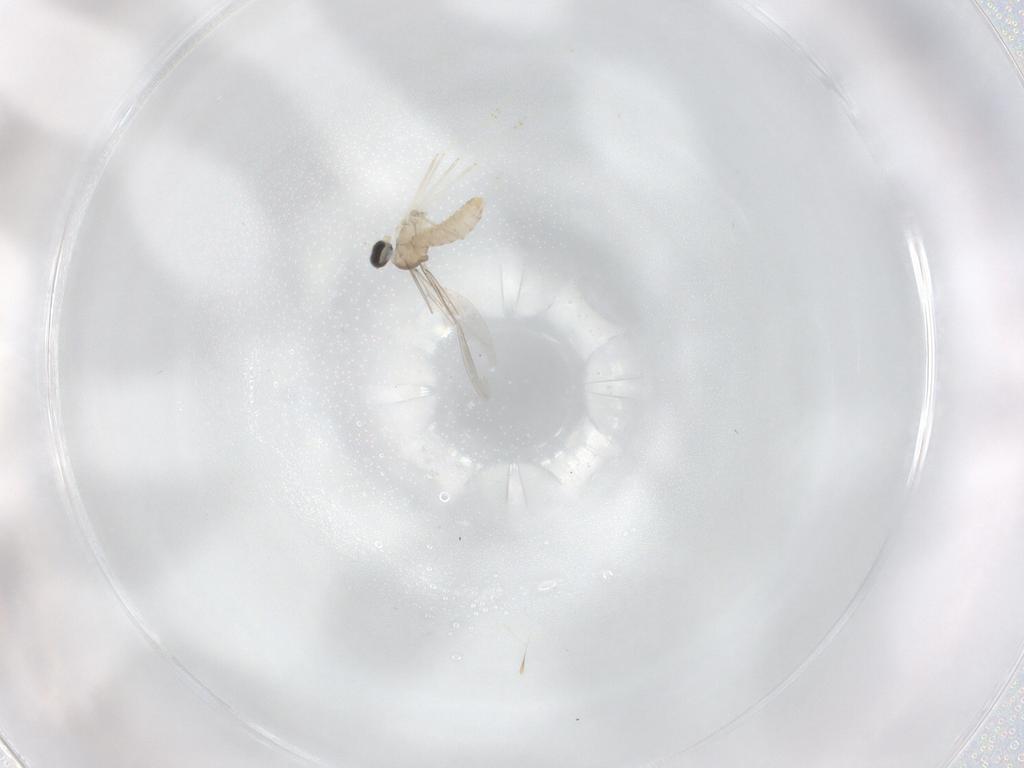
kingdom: Animalia
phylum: Arthropoda
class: Insecta
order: Diptera
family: Cecidomyiidae
